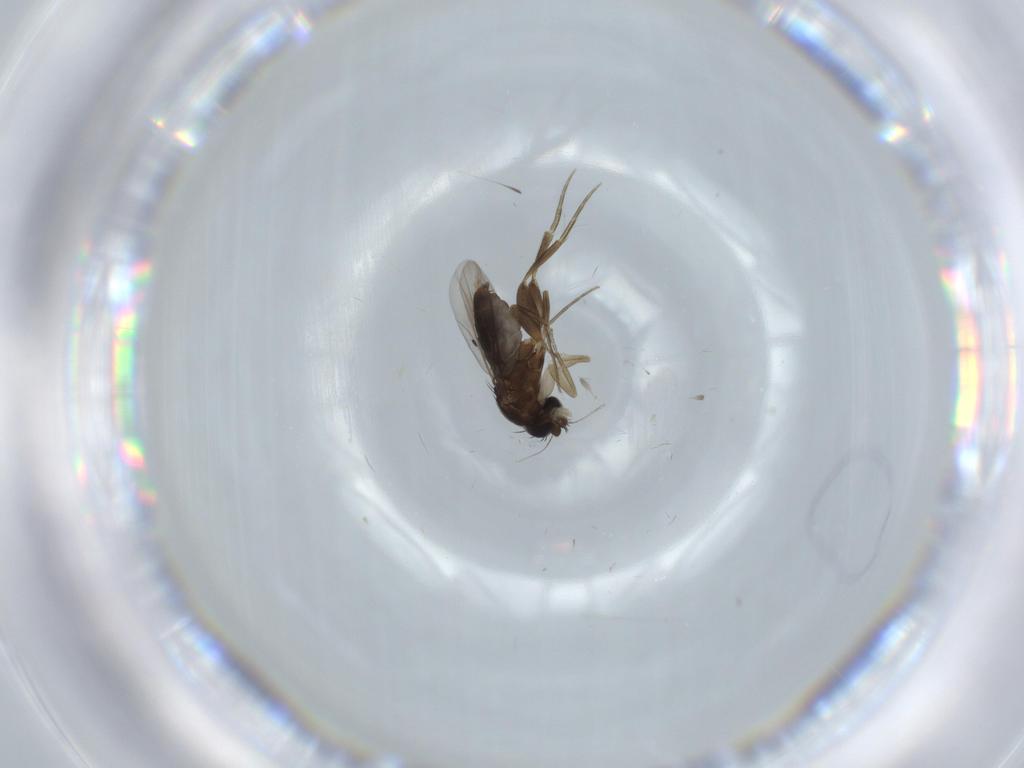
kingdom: Animalia
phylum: Arthropoda
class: Insecta
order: Diptera
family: Phoridae
